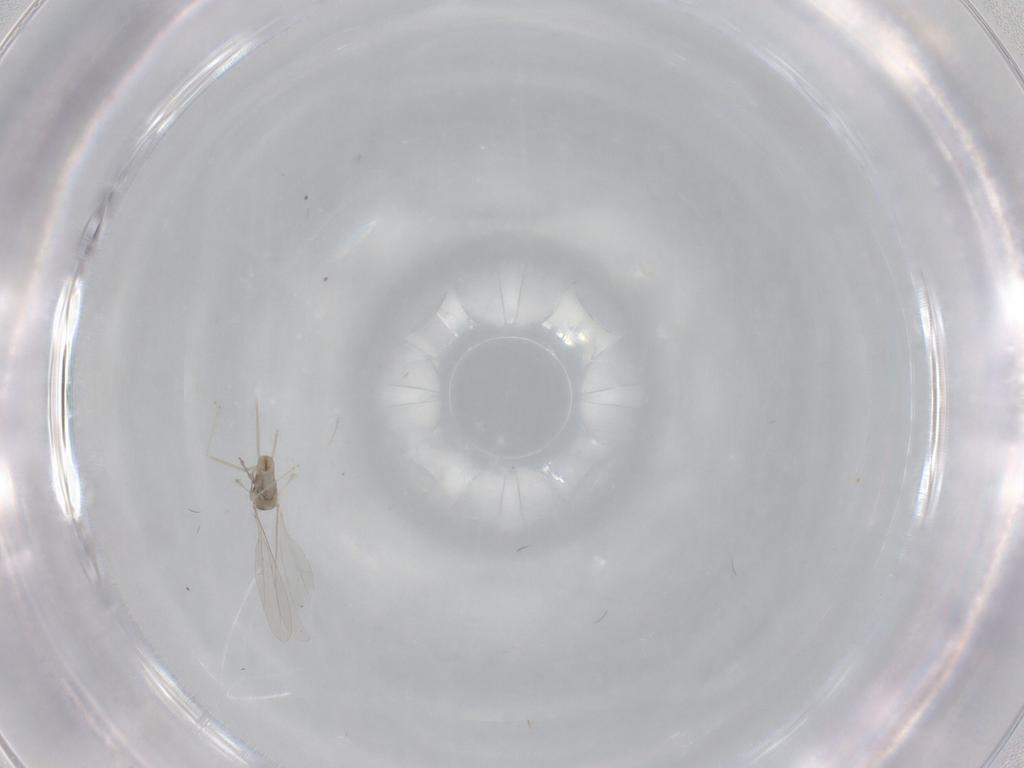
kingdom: Animalia
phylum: Arthropoda
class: Insecta
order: Diptera
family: Cecidomyiidae
